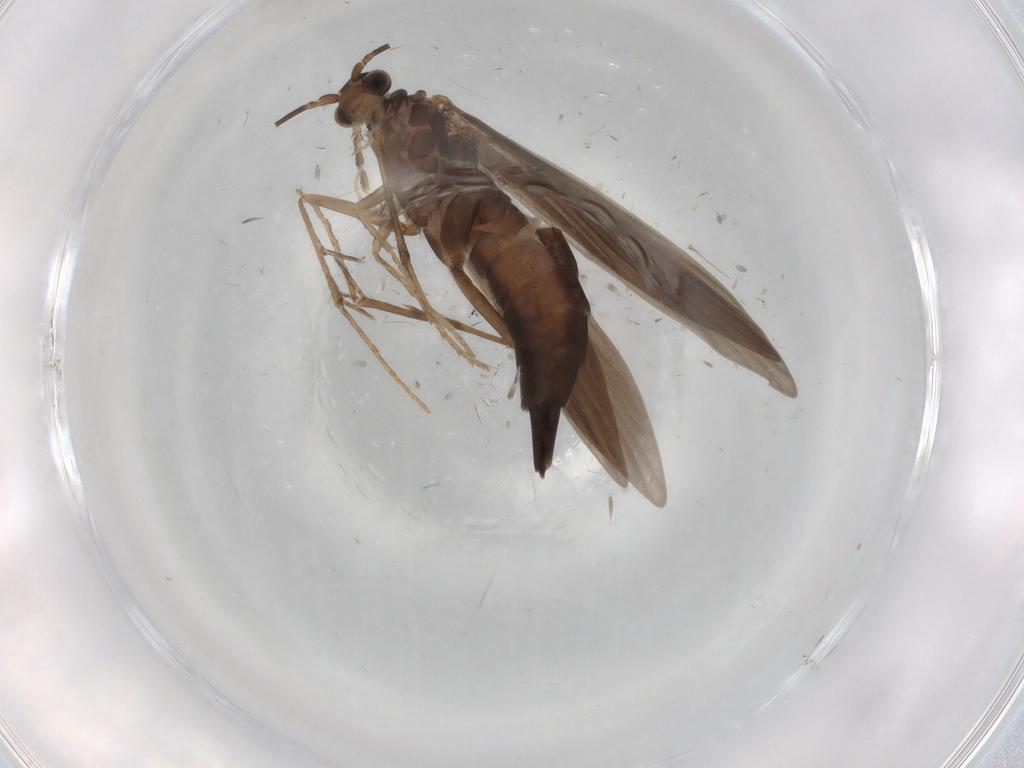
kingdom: Animalia
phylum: Arthropoda
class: Insecta
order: Trichoptera
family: Xiphocentronidae
